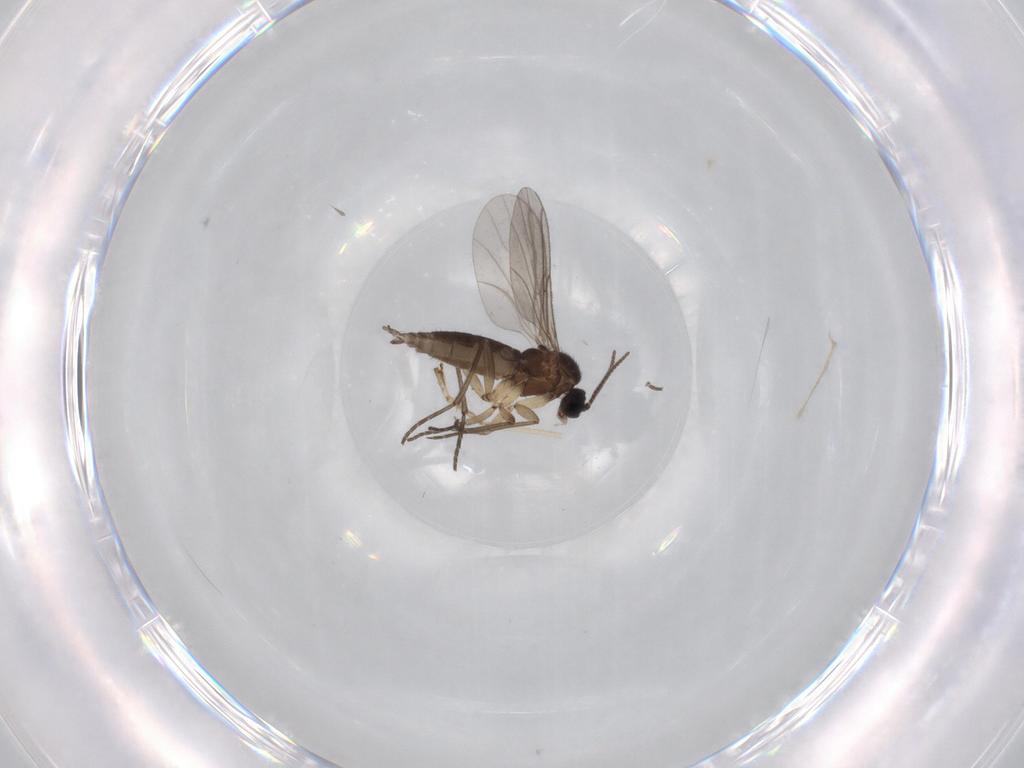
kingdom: Animalia
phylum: Arthropoda
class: Insecta
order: Diptera
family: Sciaridae
